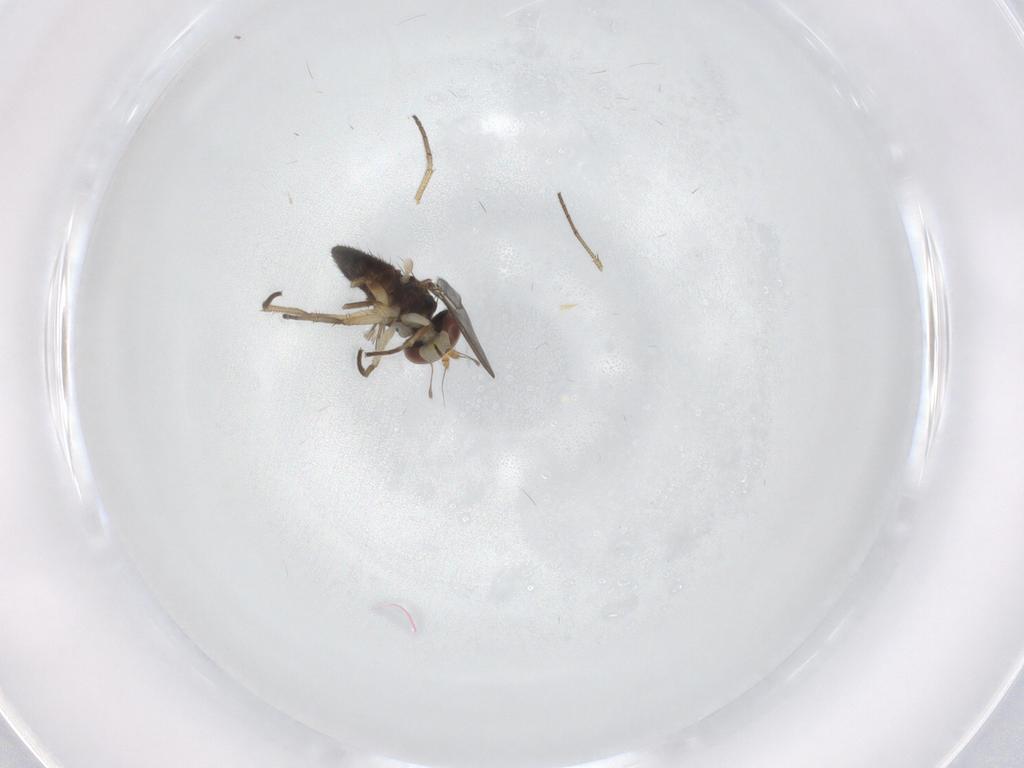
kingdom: Animalia
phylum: Arthropoda
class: Insecta
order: Diptera
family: Dolichopodidae
